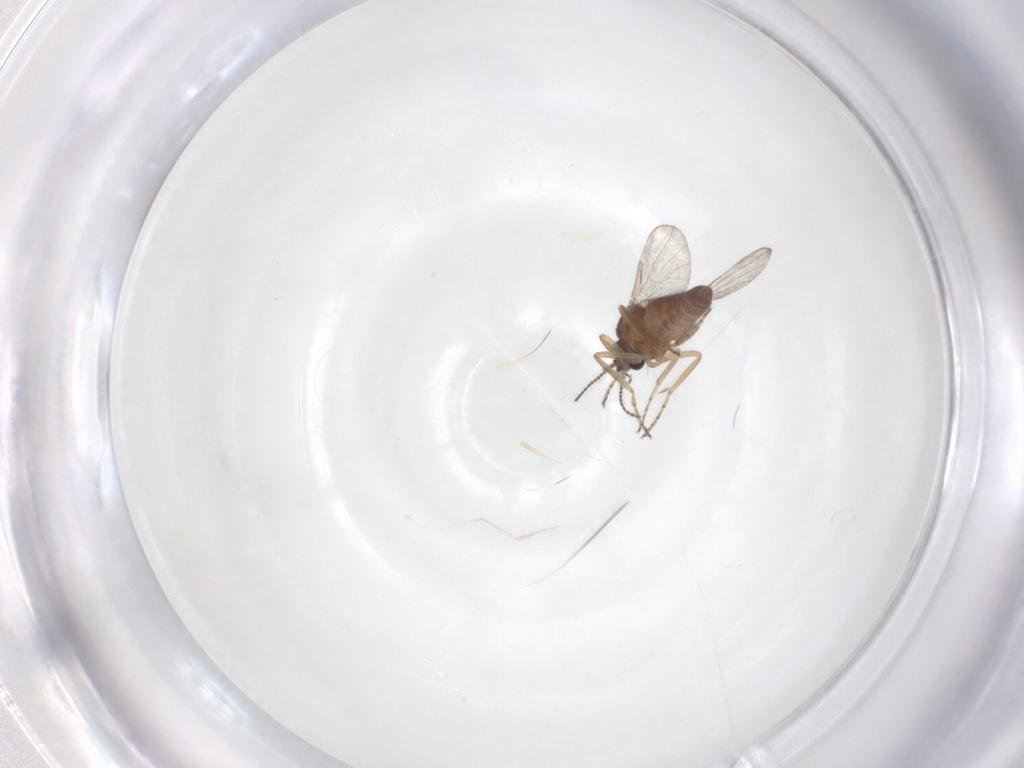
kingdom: Animalia
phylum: Arthropoda
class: Insecta
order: Diptera
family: Ceratopogonidae
